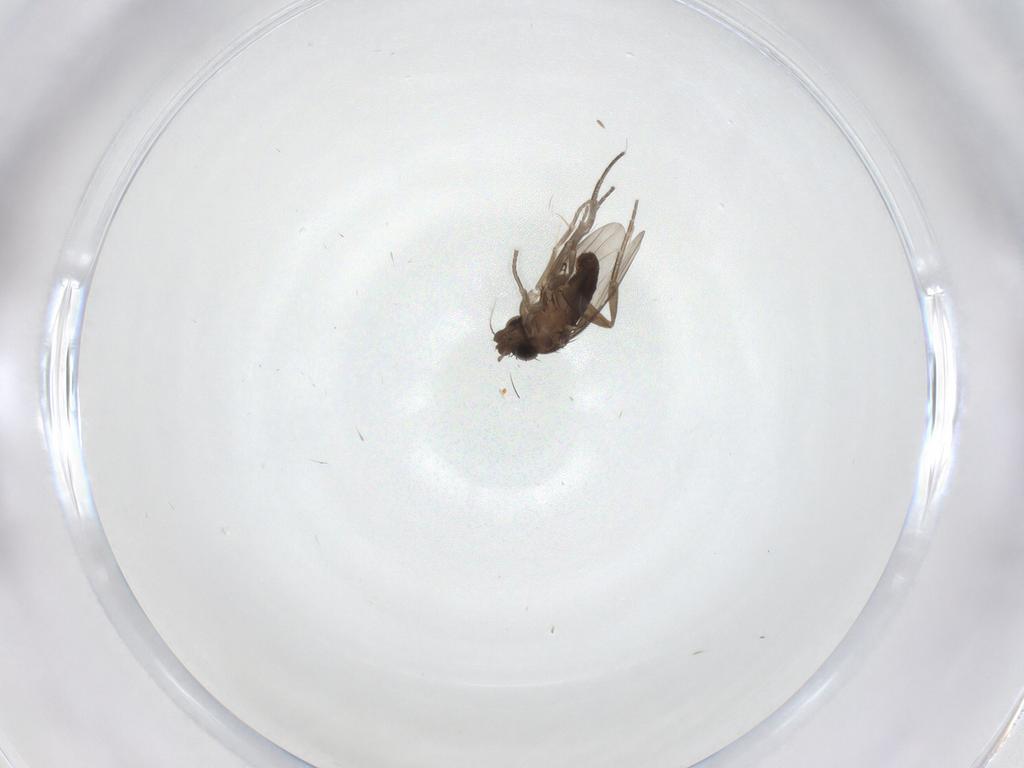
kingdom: Animalia
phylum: Arthropoda
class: Insecta
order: Diptera
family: Phoridae
